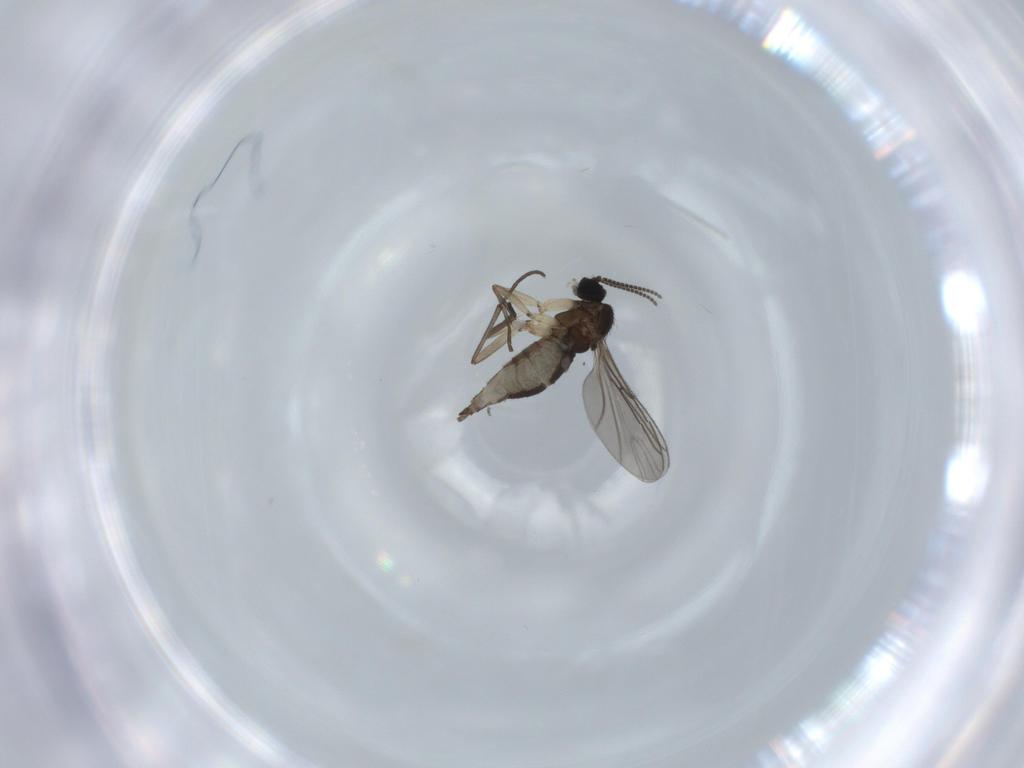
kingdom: Animalia
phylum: Arthropoda
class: Insecta
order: Diptera
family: Sciaridae
